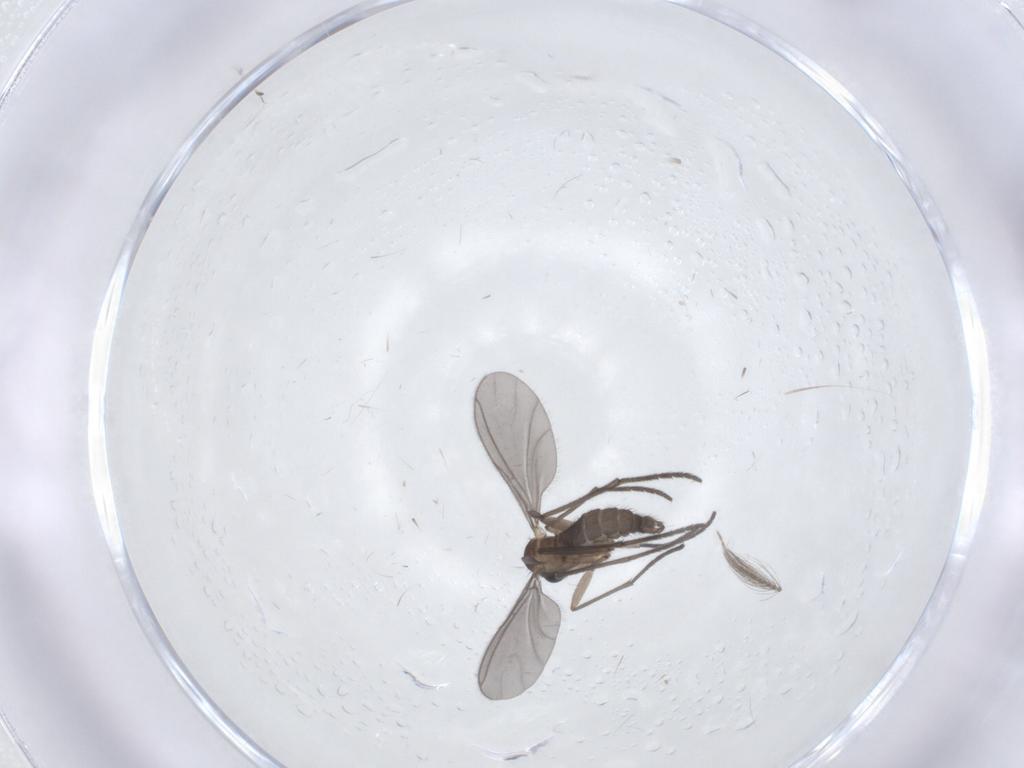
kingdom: Animalia
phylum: Arthropoda
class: Insecta
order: Diptera
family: Sciaridae
